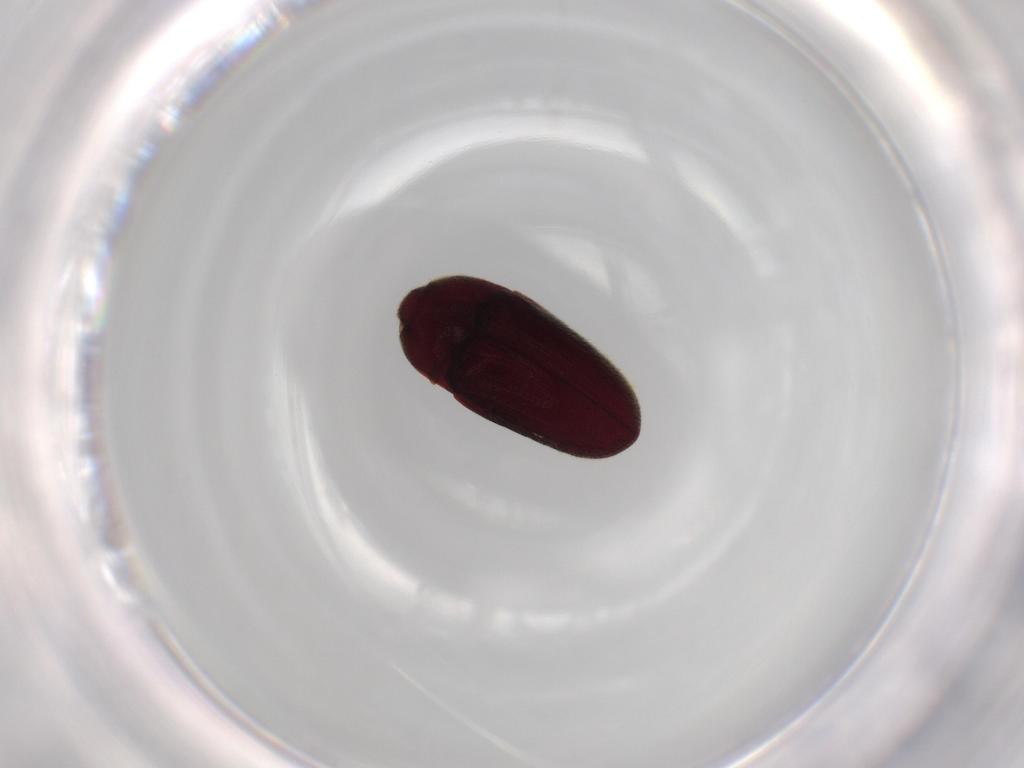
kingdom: Animalia
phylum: Arthropoda
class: Insecta
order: Coleoptera
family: Throscidae
